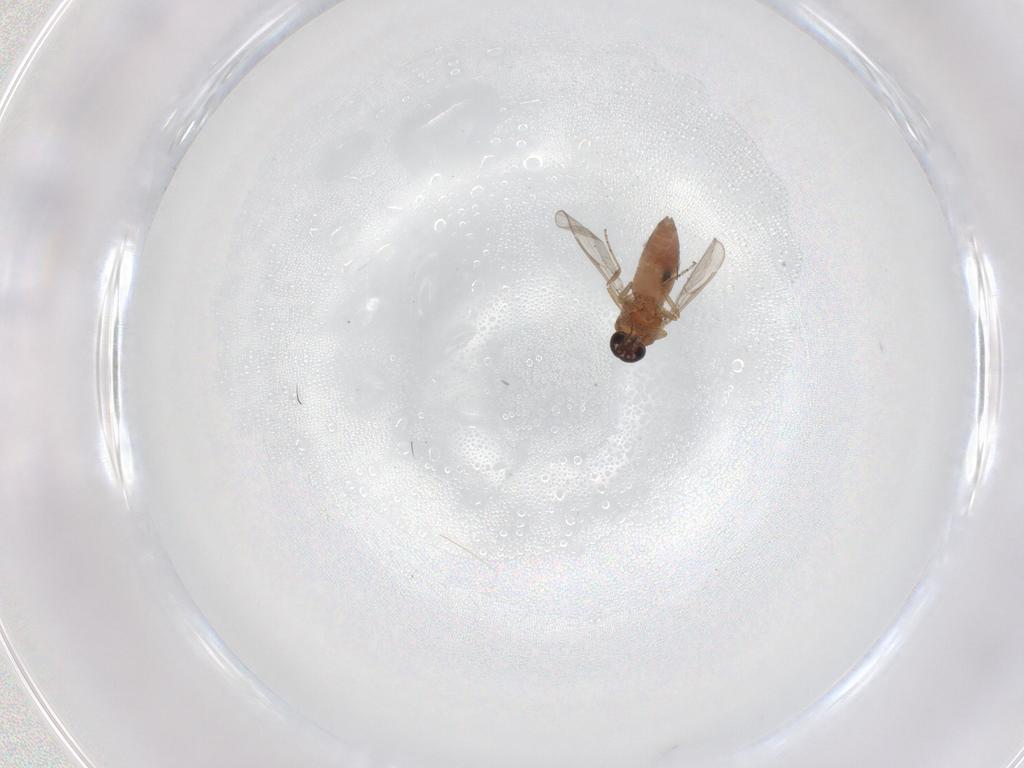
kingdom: Animalia
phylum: Arthropoda
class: Insecta
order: Diptera
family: Ceratopogonidae
